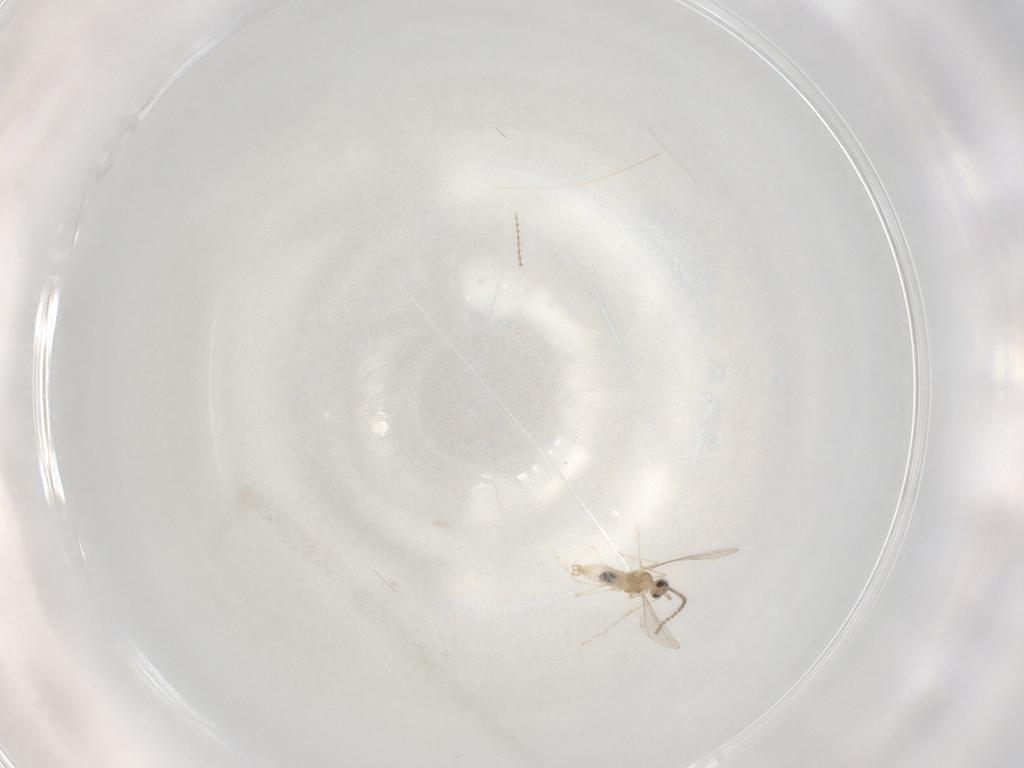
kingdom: Animalia
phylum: Arthropoda
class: Insecta
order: Diptera
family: Cecidomyiidae
